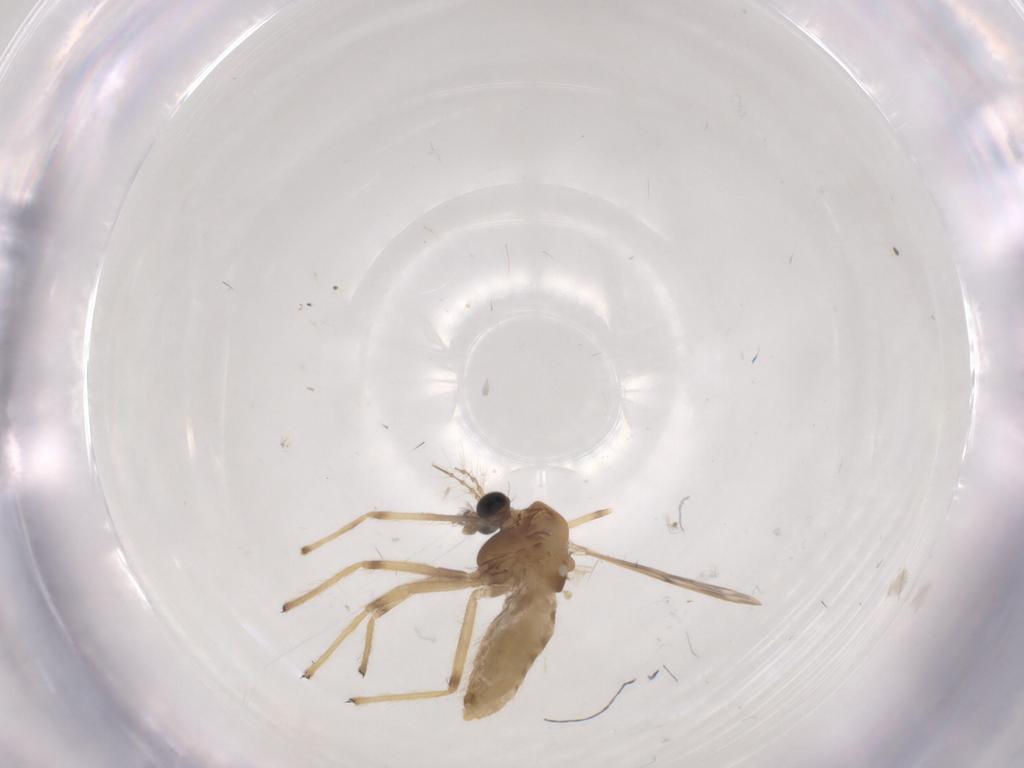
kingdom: Animalia
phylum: Arthropoda
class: Insecta
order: Diptera
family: Chironomidae
